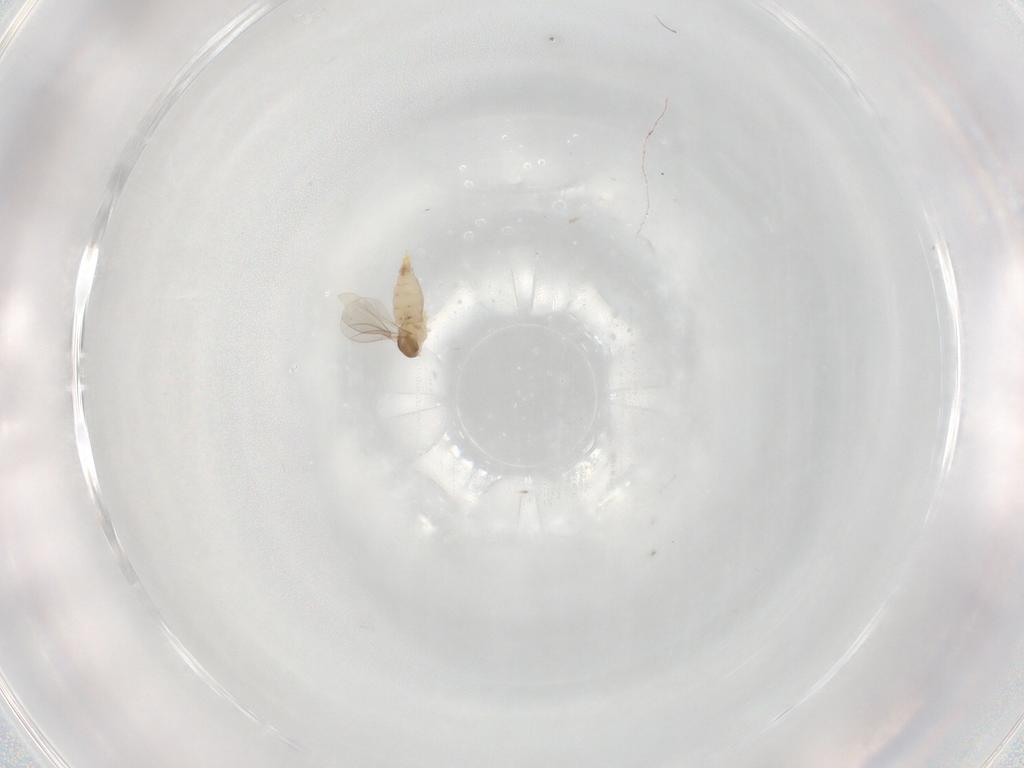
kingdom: Animalia
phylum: Arthropoda
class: Insecta
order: Diptera
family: Cecidomyiidae
